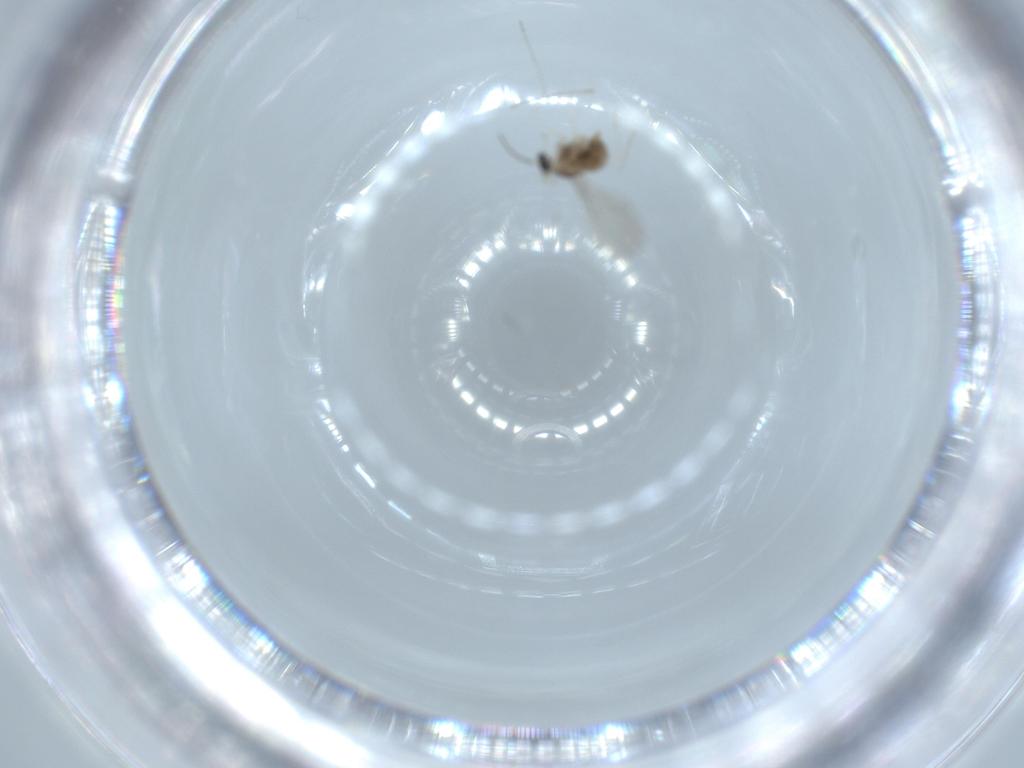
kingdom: Animalia
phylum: Arthropoda
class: Insecta
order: Diptera
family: Cecidomyiidae
